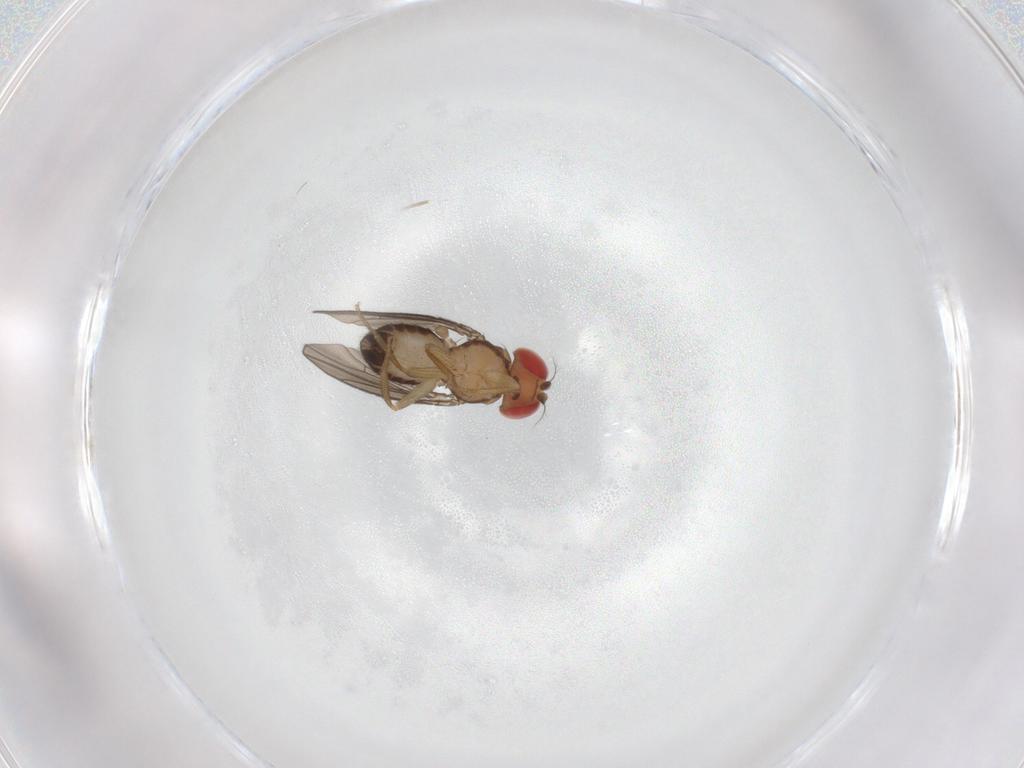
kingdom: Animalia
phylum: Arthropoda
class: Insecta
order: Diptera
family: Drosophilidae
